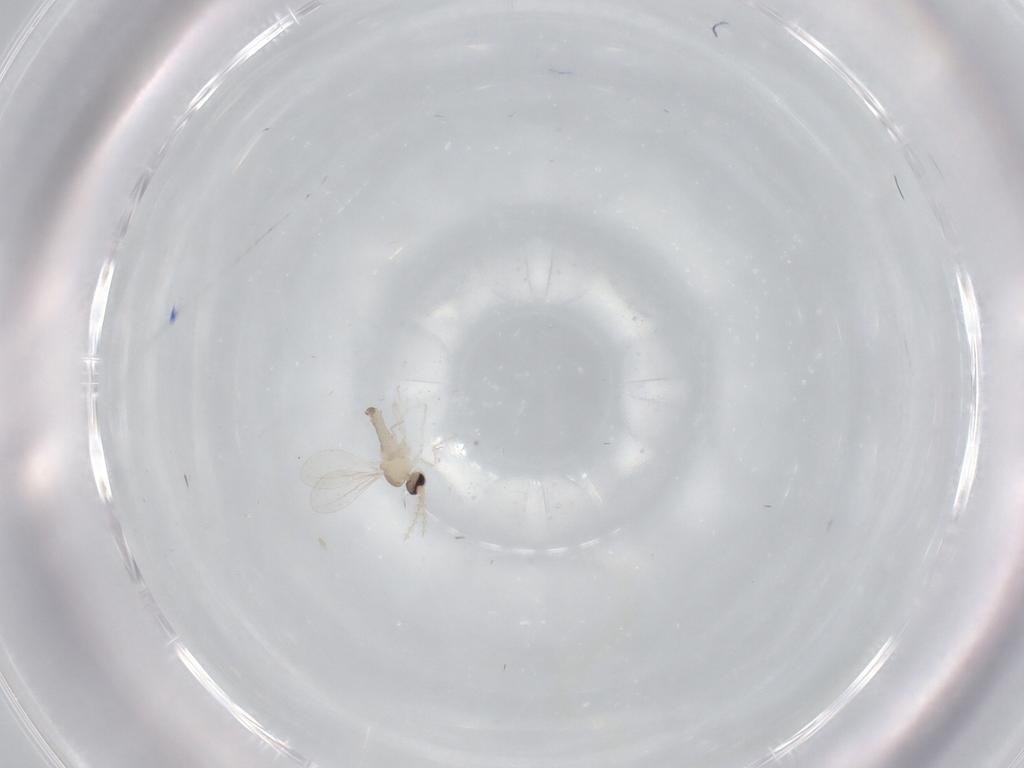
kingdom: Animalia
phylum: Arthropoda
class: Insecta
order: Diptera
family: Cecidomyiidae
